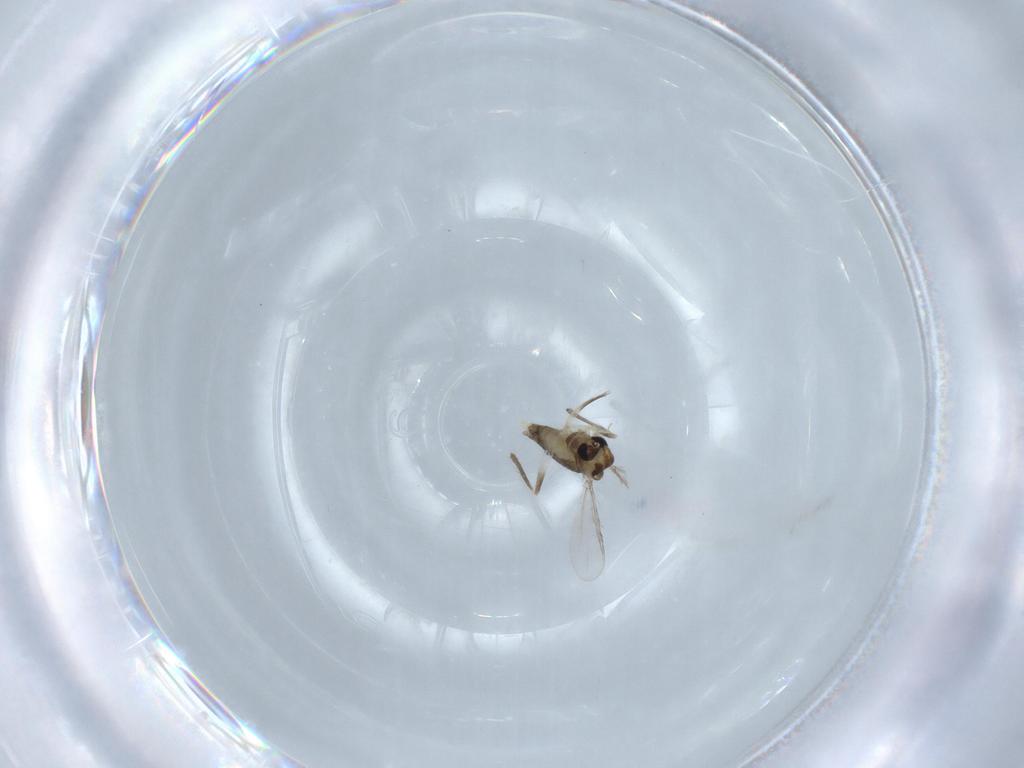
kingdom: Animalia
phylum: Arthropoda
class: Insecta
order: Diptera
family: Chironomidae
